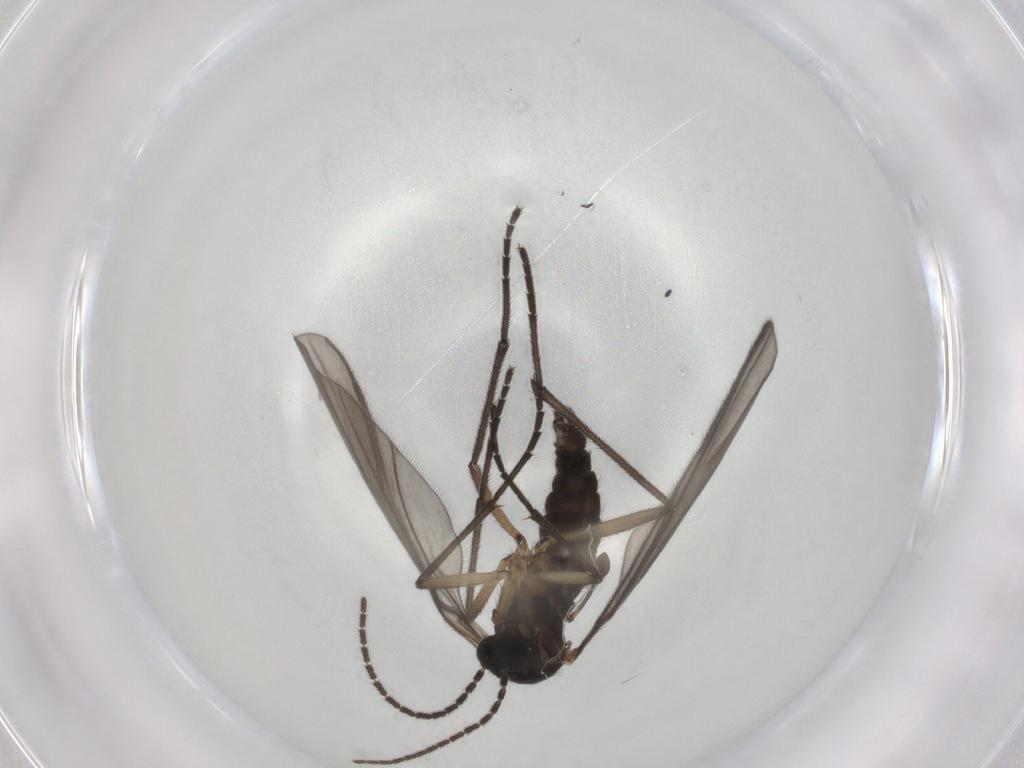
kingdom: Animalia
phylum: Arthropoda
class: Insecta
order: Diptera
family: Sciaridae
